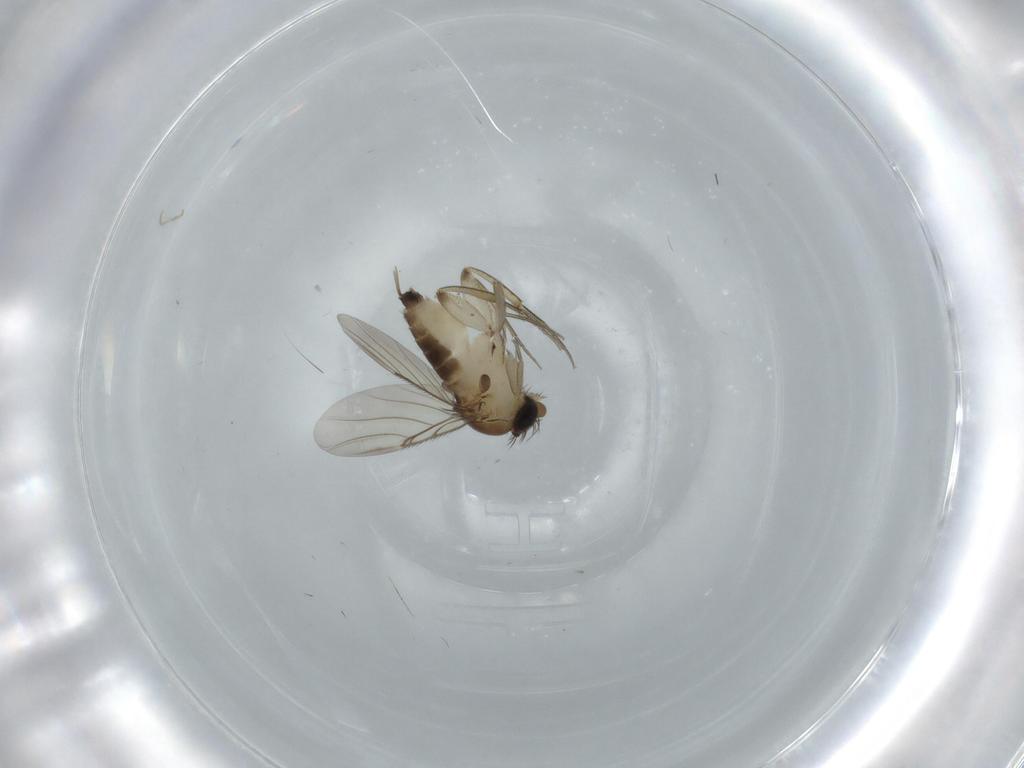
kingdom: Animalia
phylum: Arthropoda
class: Insecta
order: Diptera
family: Phoridae
